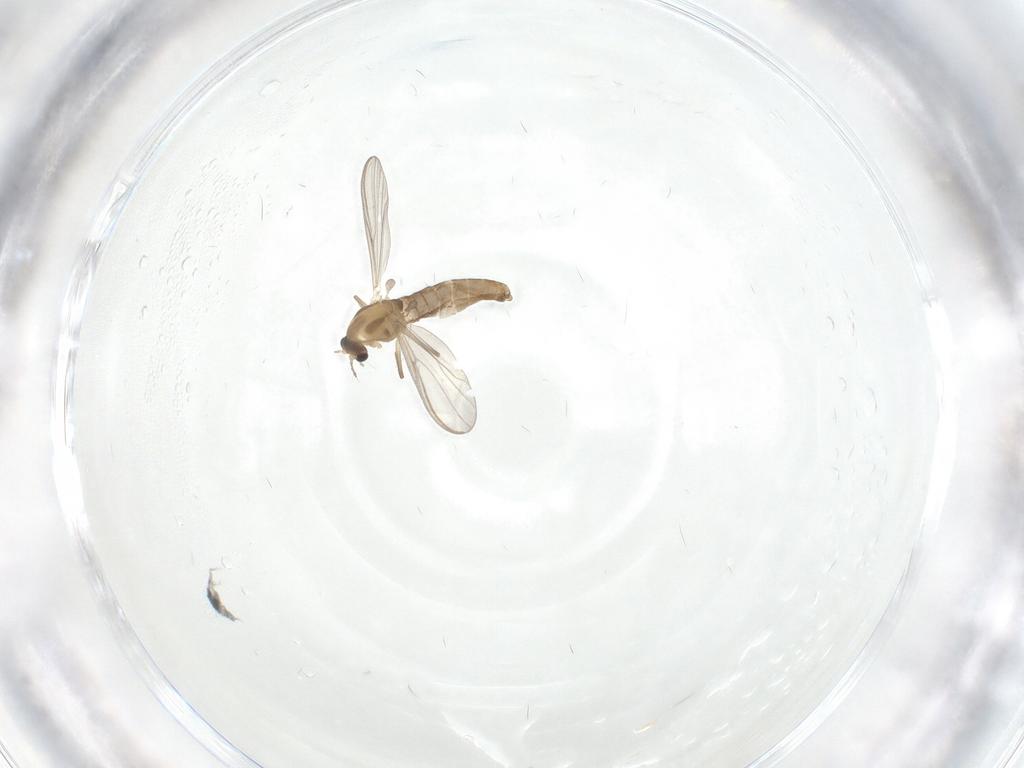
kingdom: Animalia
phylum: Arthropoda
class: Insecta
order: Diptera
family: Chironomidae
